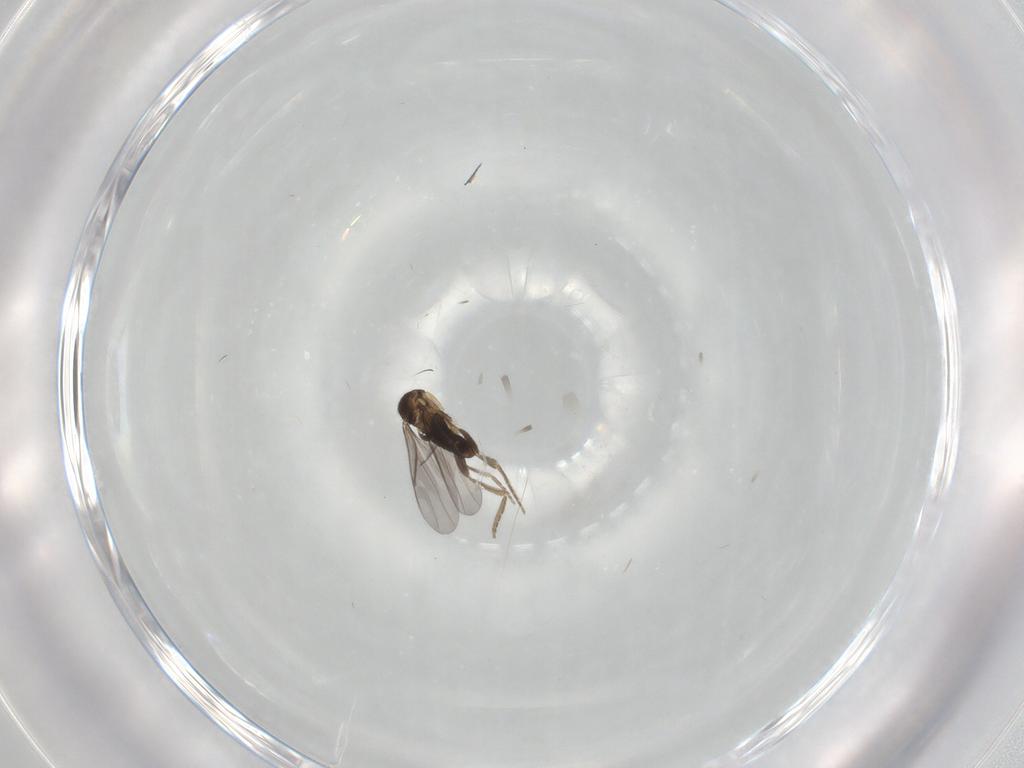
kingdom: Animalia
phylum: Arthropoda
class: Insecta
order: Diptera
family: Phoridae
